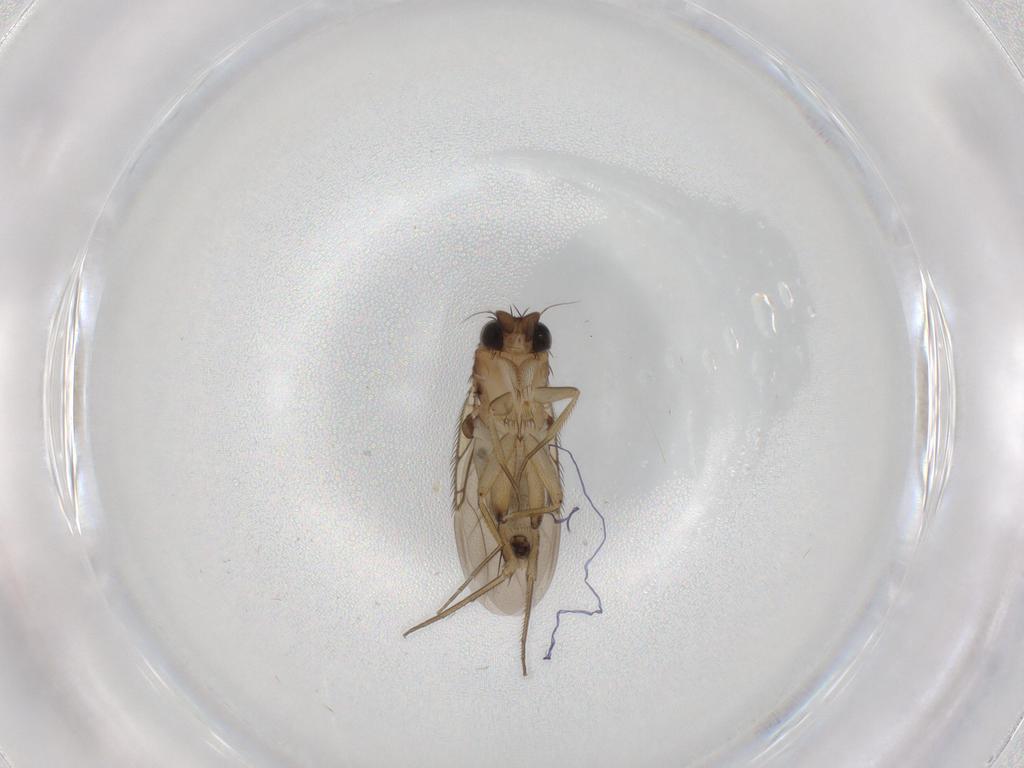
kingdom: Animalia
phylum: Arthropoda
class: Insecta
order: Diptera
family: Phoridae
